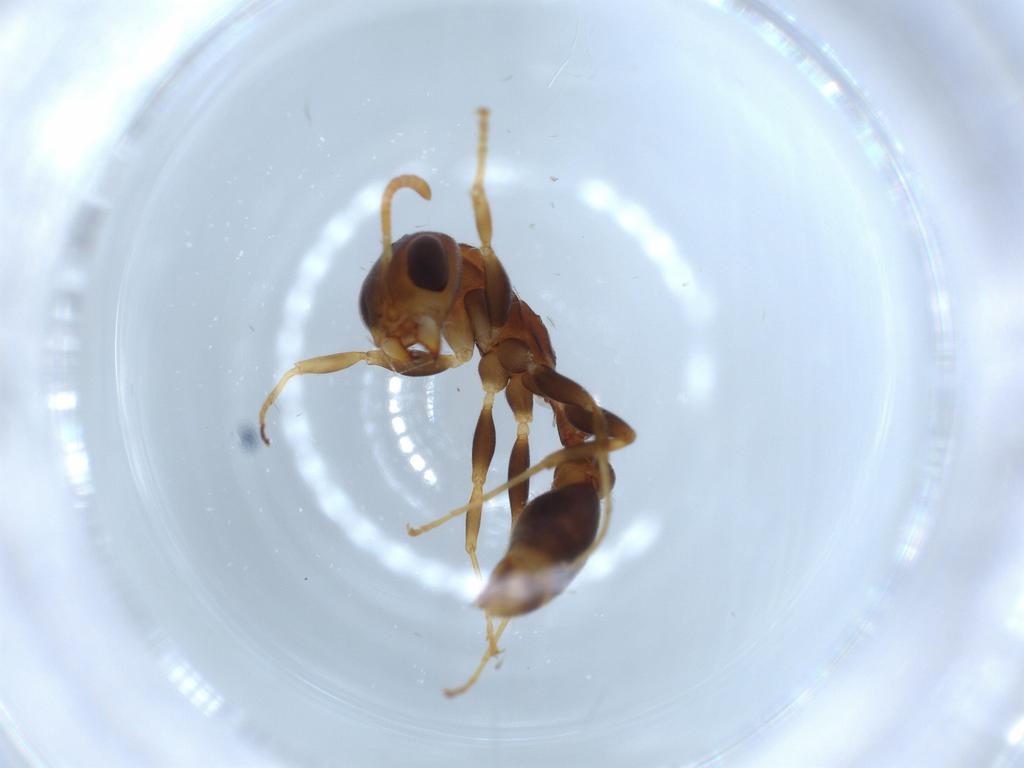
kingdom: Animalia
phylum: Arthropoda
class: Insecta
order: Hymenoptera
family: Formicidae
